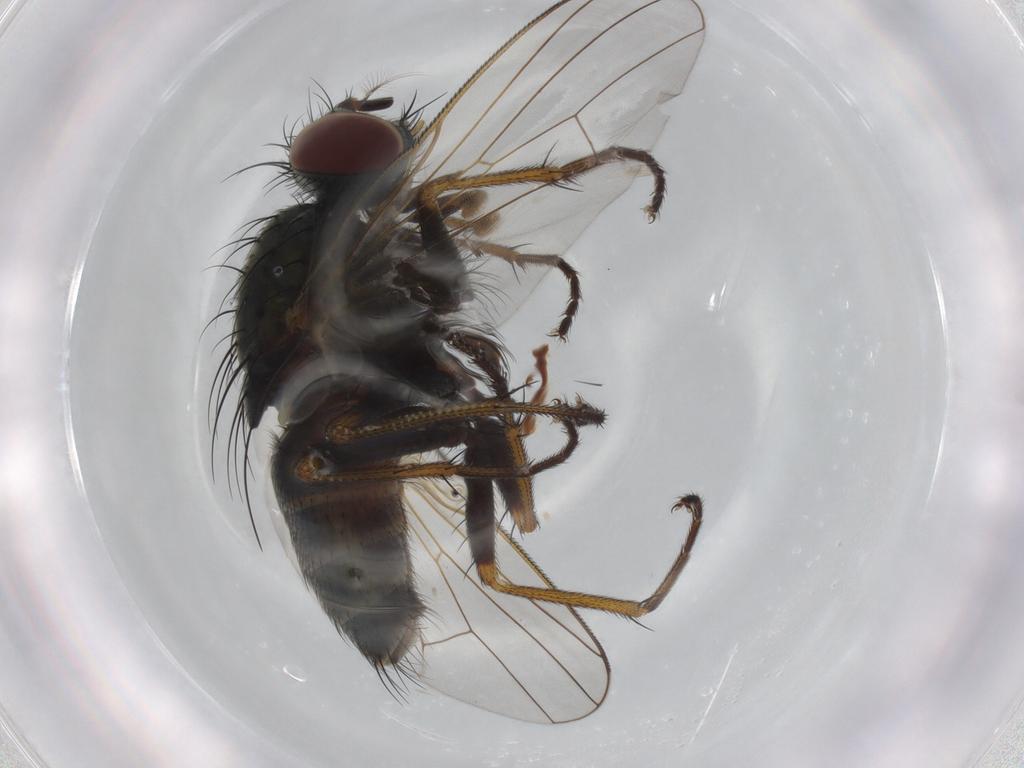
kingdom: Animalia
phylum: Arthropoda
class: Insecta
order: Diptera
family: Muscidae
